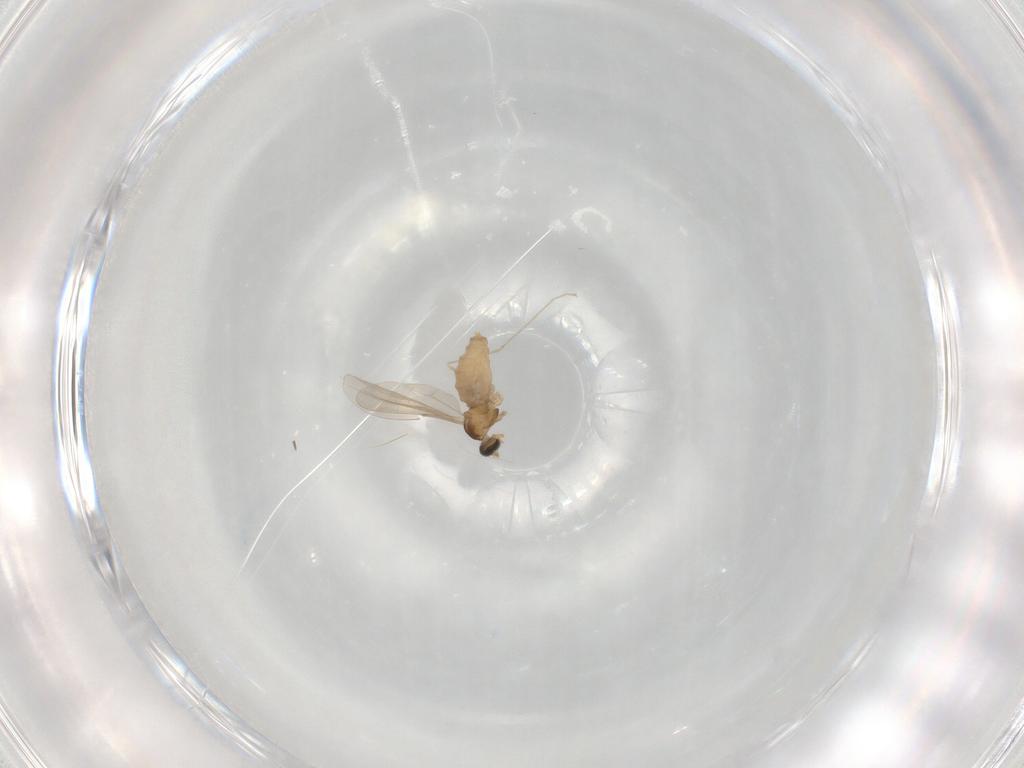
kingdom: Animalia
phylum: Arthropoda
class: Insecta
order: Diptera
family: Cecidomyiidae
